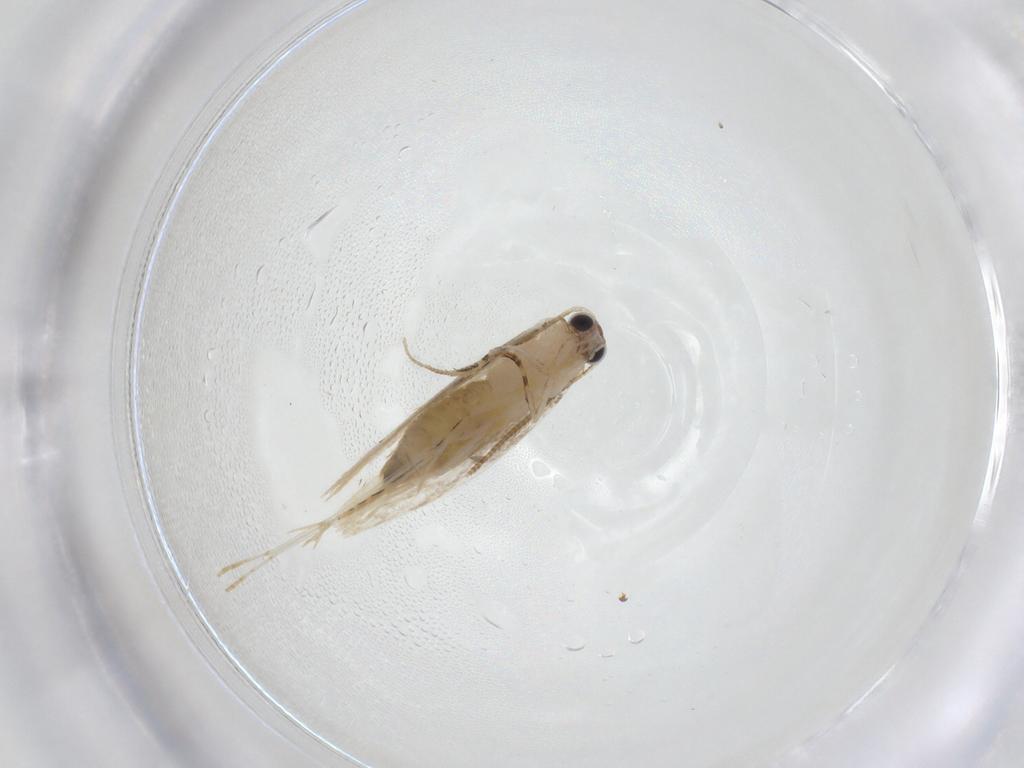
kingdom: Animalia
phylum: Arthropoda
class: Insecta
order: Lepidoptera
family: Tineidae
